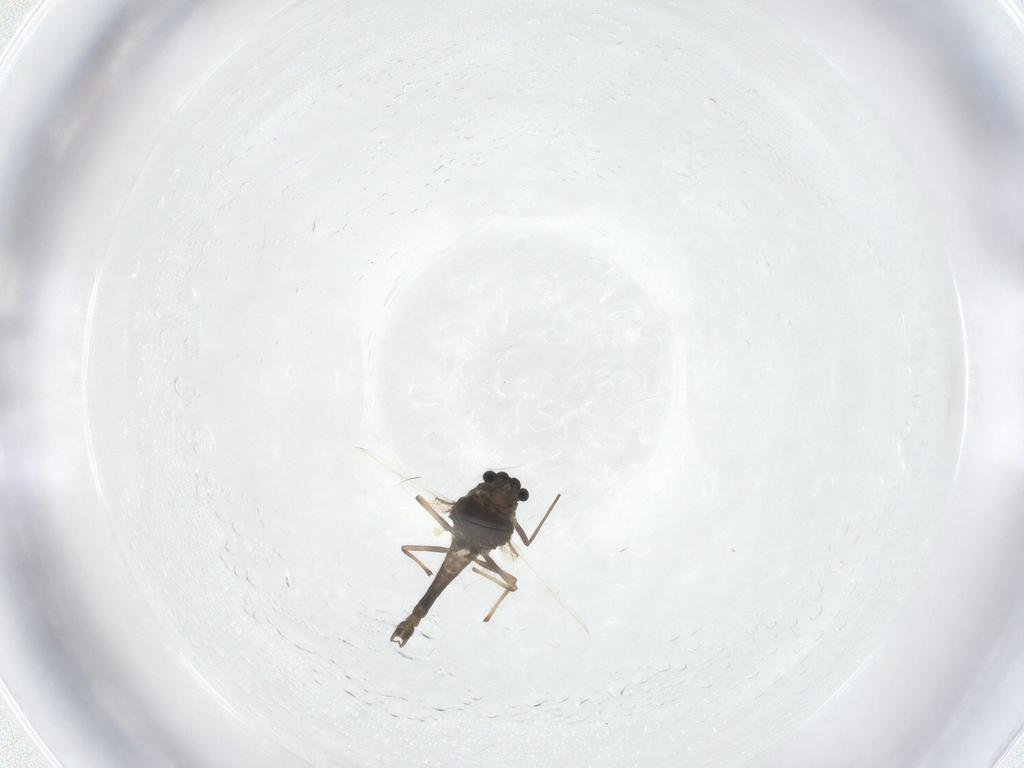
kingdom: Animalia
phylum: Arthropoda
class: Insecta
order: Diptera
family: Chironomidae
